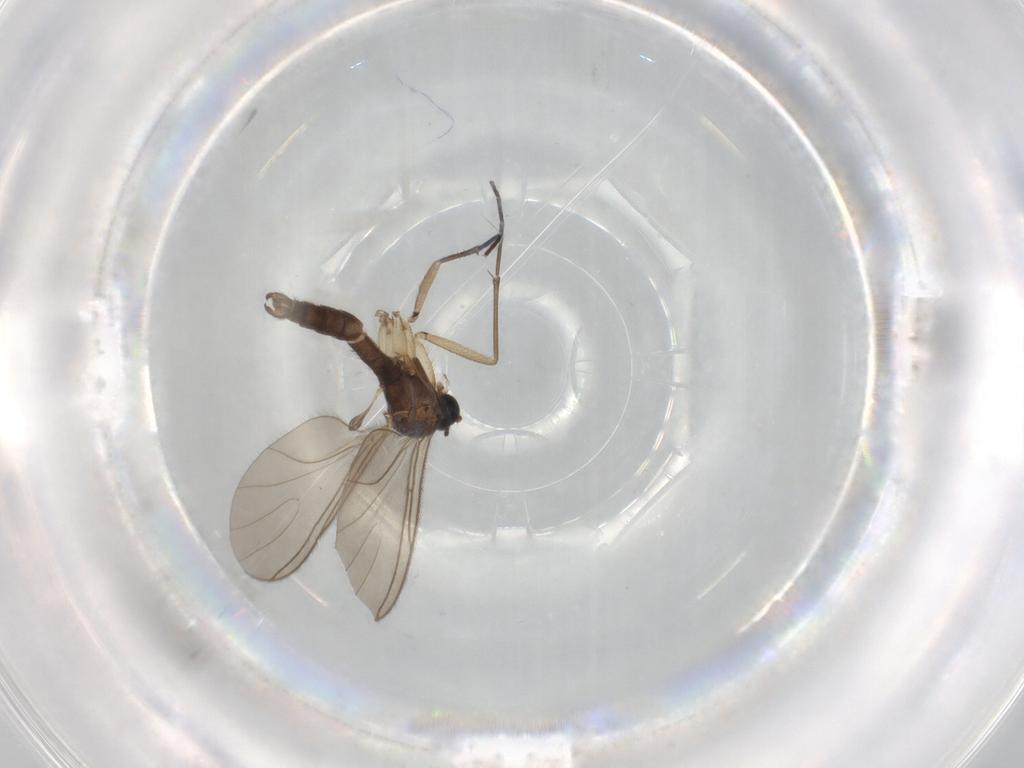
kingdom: Animalia
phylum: Arthropoda
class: Insecta
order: Diptera
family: Sciaridae
